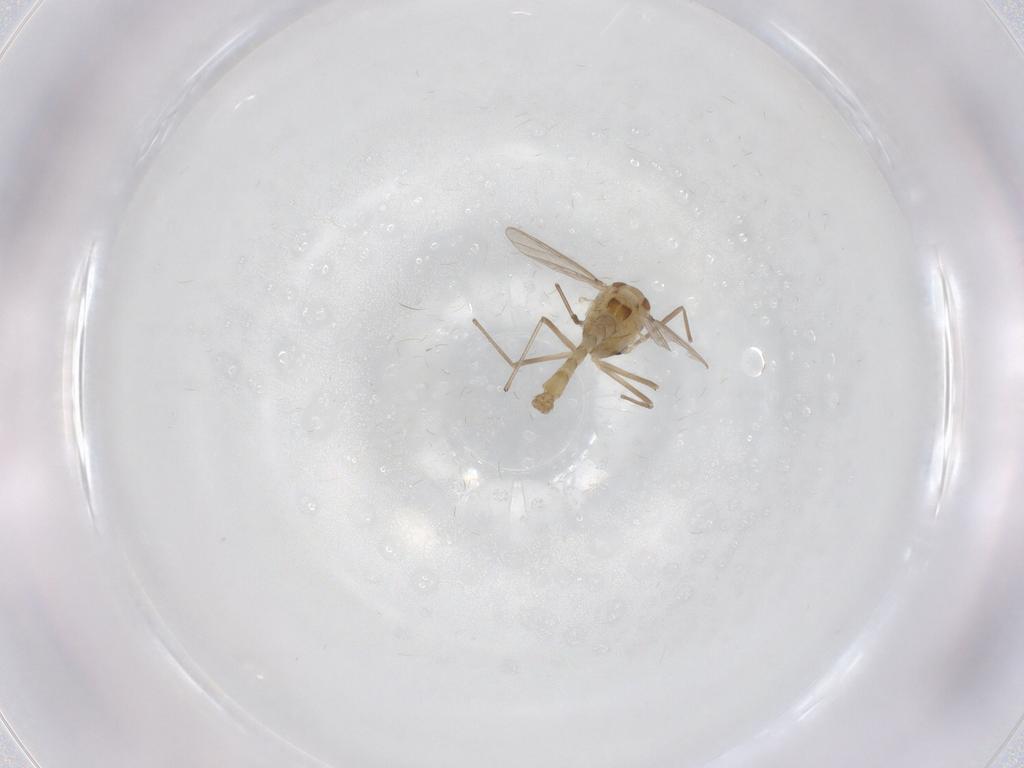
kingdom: Animalia
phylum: Arthropoda
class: Insecta
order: Diptera
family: Chironomidae
